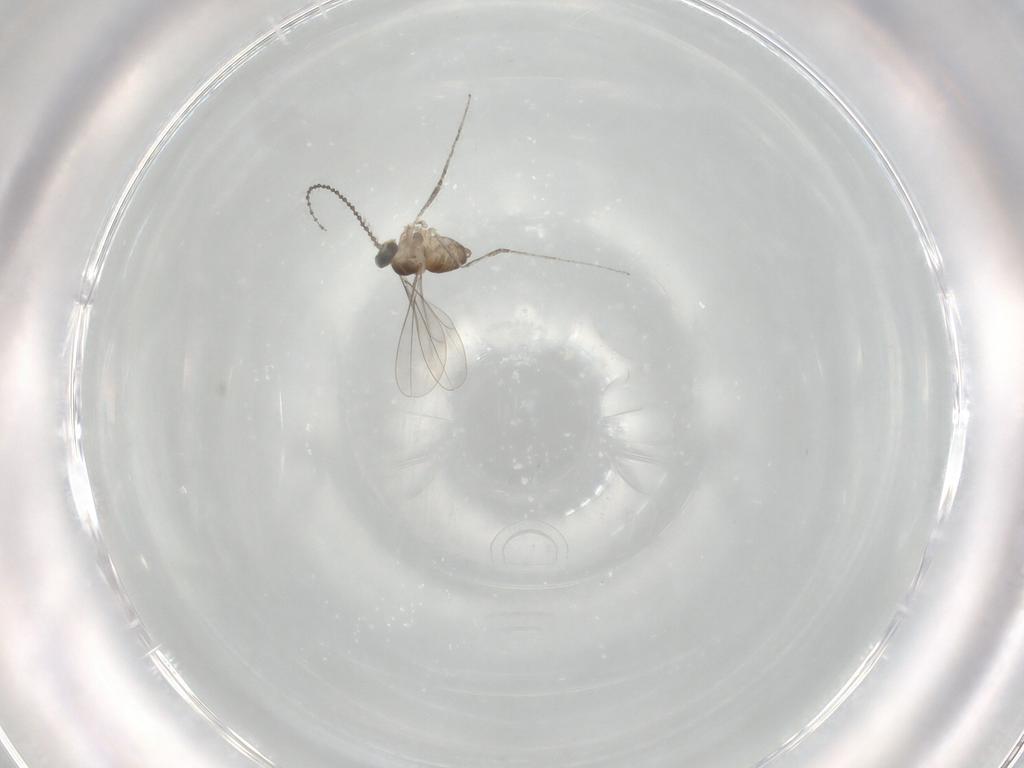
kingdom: Animalia
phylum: Arthropoda
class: Insecta
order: Diptera
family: Cecidomyiidae
